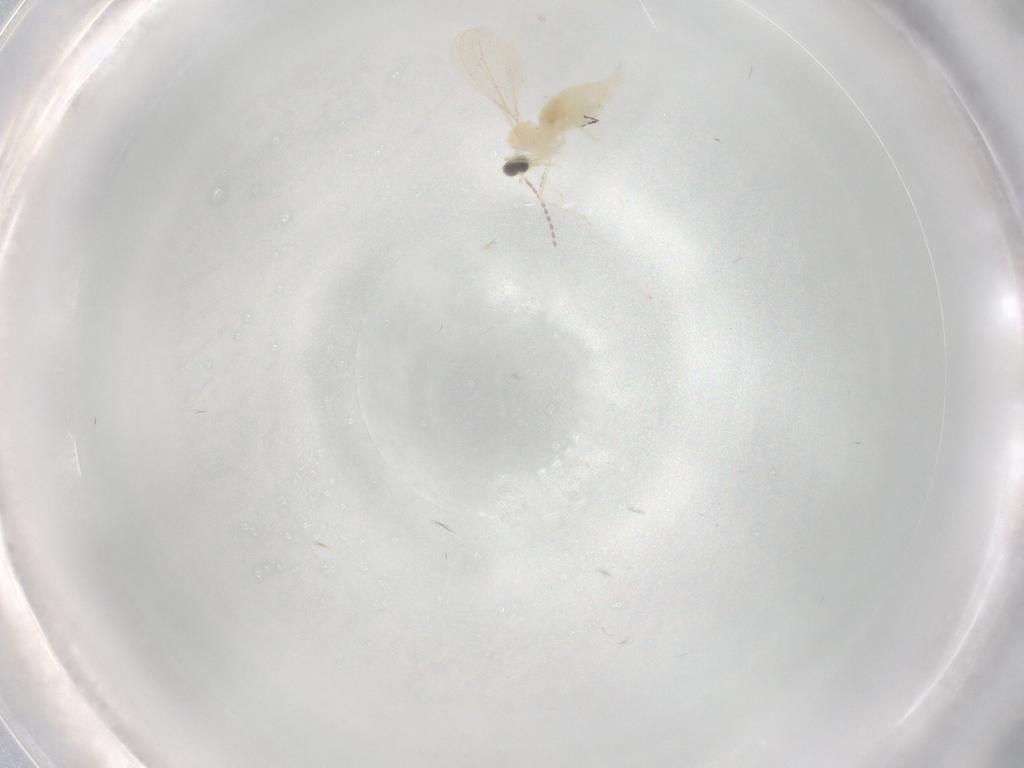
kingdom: Animalia
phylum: Arthropoda
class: Insecta
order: Diptera
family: Cecidomyiidae
